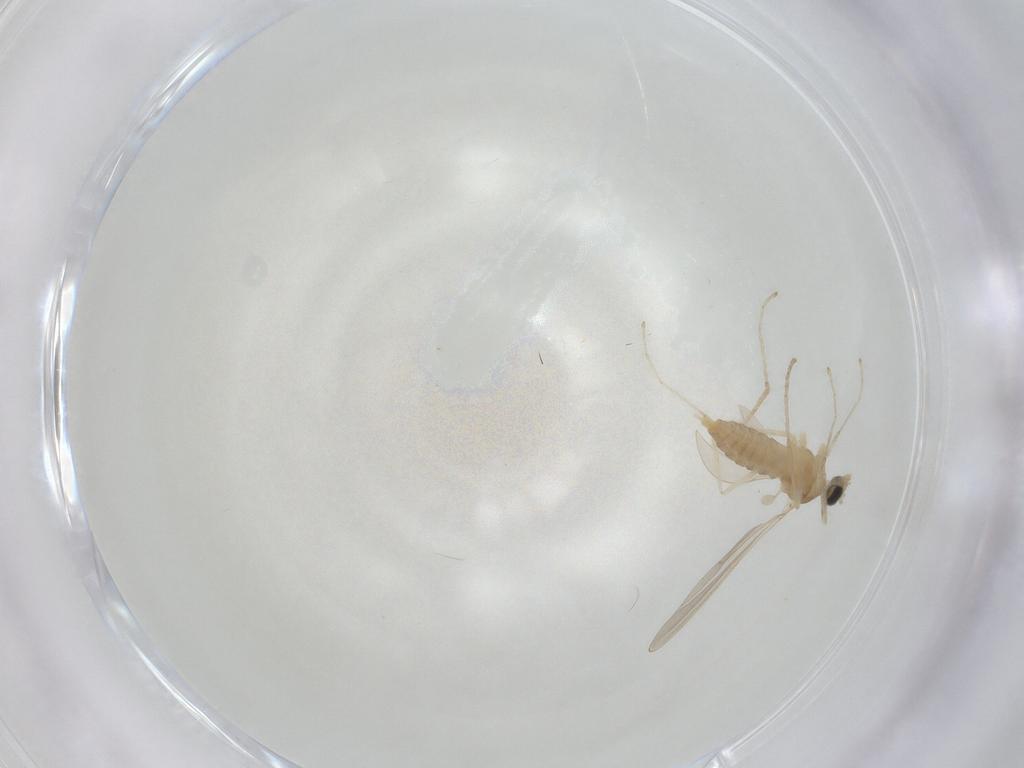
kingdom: Animalia
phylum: Arthropoda
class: Insecta
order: Diptera
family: Cecidomyiidae
